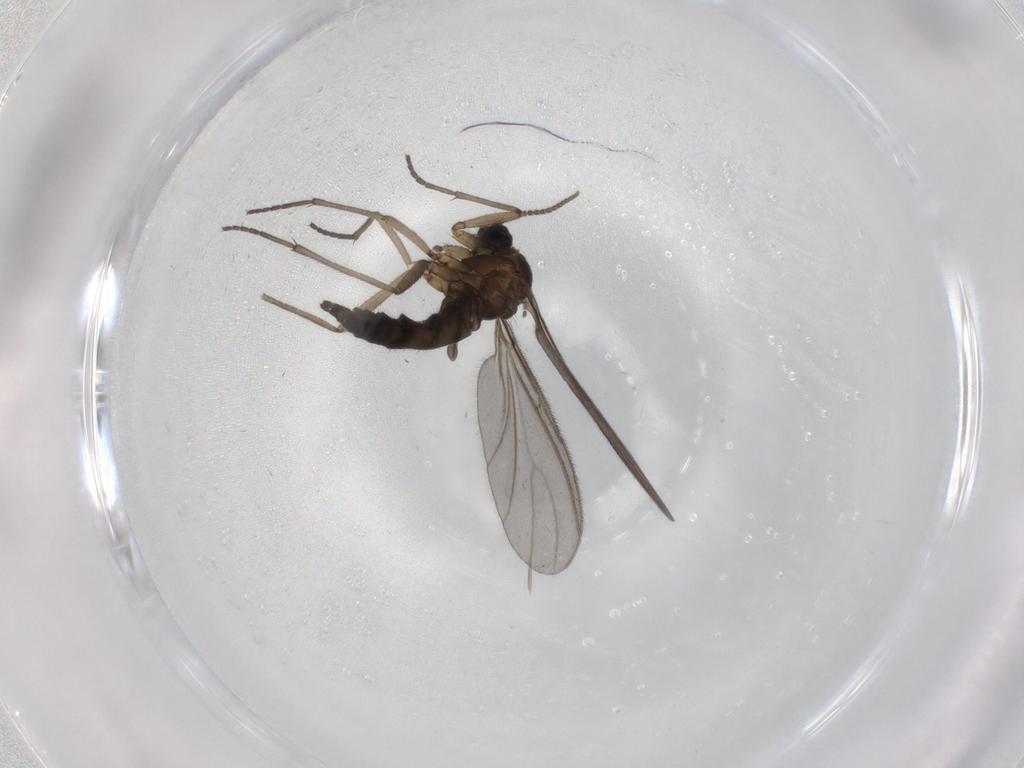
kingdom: Animalia
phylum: Arthropoda
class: Insecta
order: Diptera
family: Sciaridae
